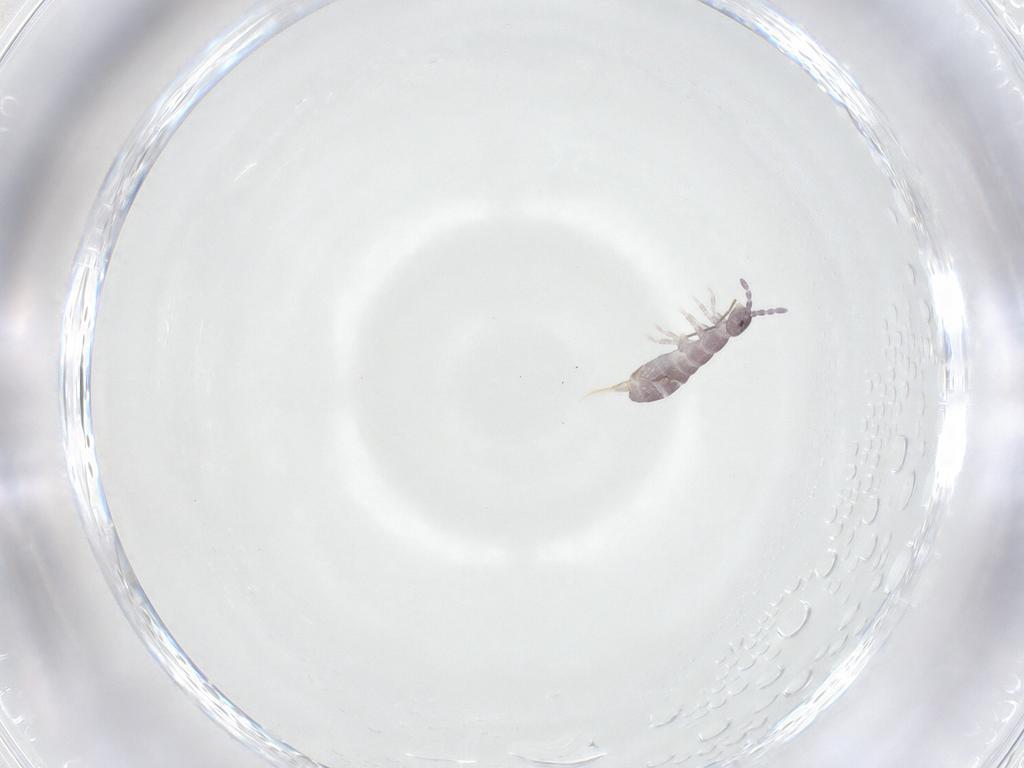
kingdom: Animalia
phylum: Arthropoda
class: Collembola
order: Entomobryomorpha
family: Isotomidae
